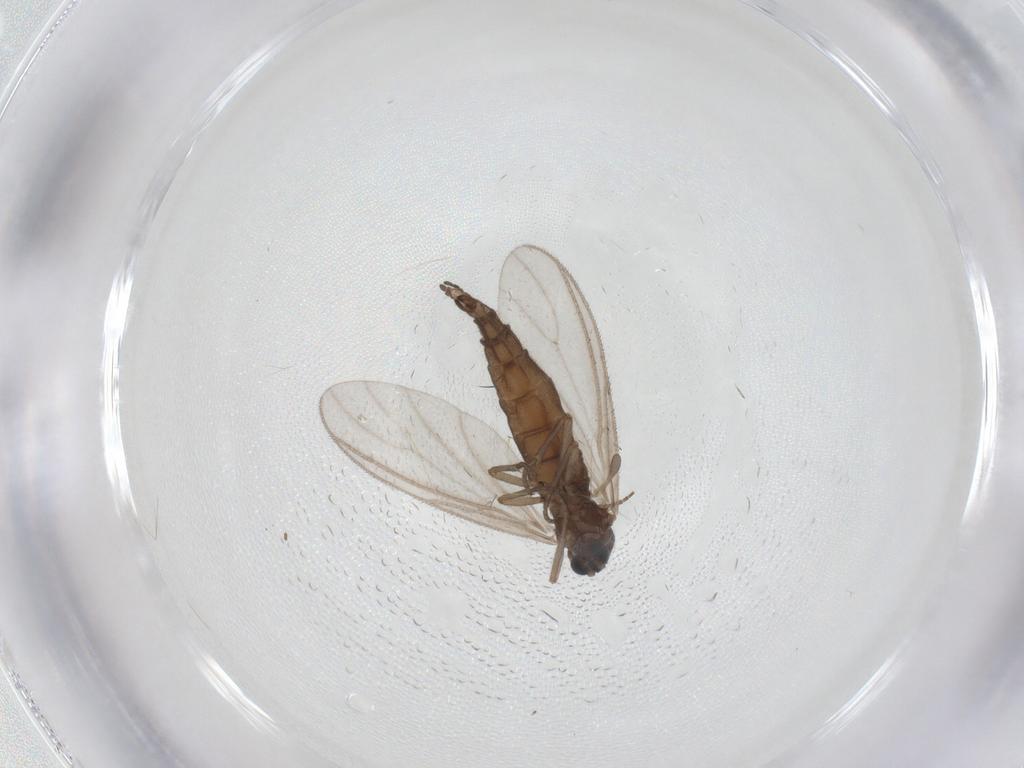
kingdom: Animalia
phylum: Arthropoda
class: Insecta
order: Diptera
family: Sciaridae
